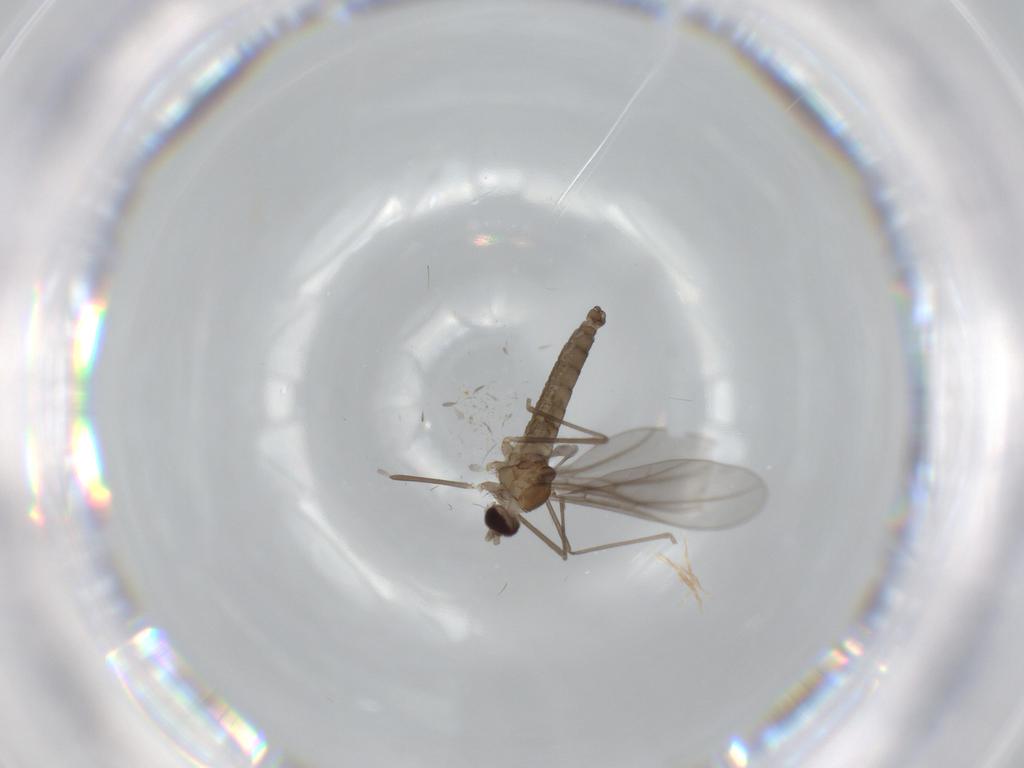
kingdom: Animalia
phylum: Arthropoda
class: Insecta
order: Diptera
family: Cecidomyiidae
